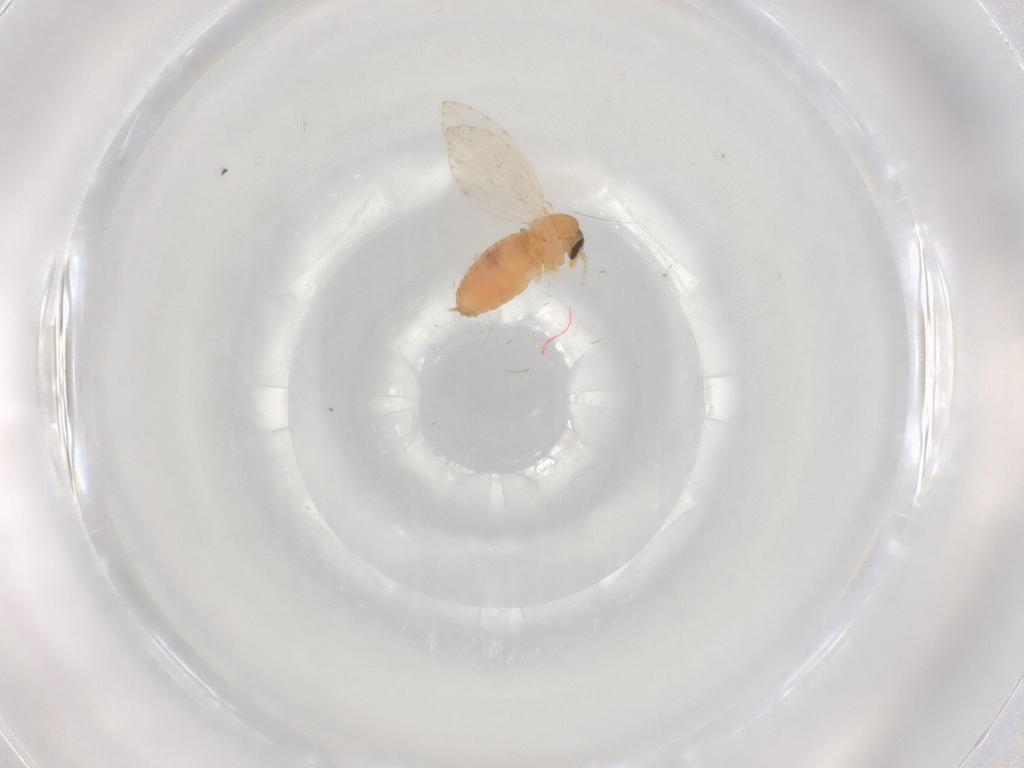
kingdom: Animalia
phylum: Arthropoda
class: Insecta
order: Diptera
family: Psychodidae
